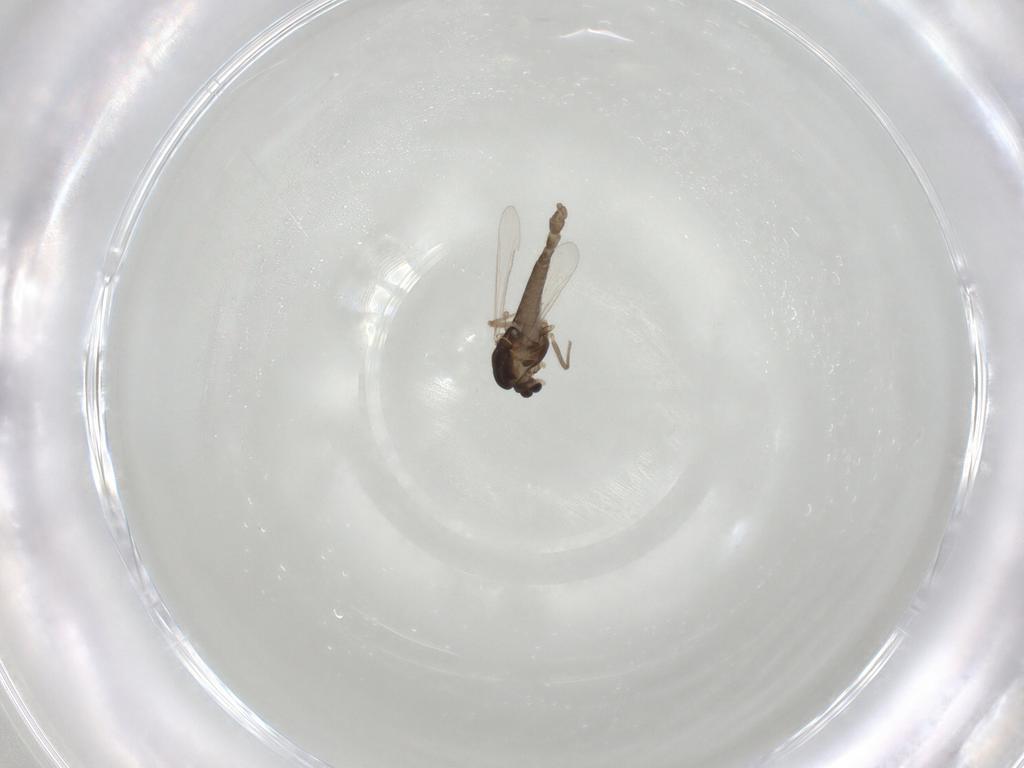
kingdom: Animalia
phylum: Arthropoda
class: Insecta
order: Diptera
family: Chironomidae
